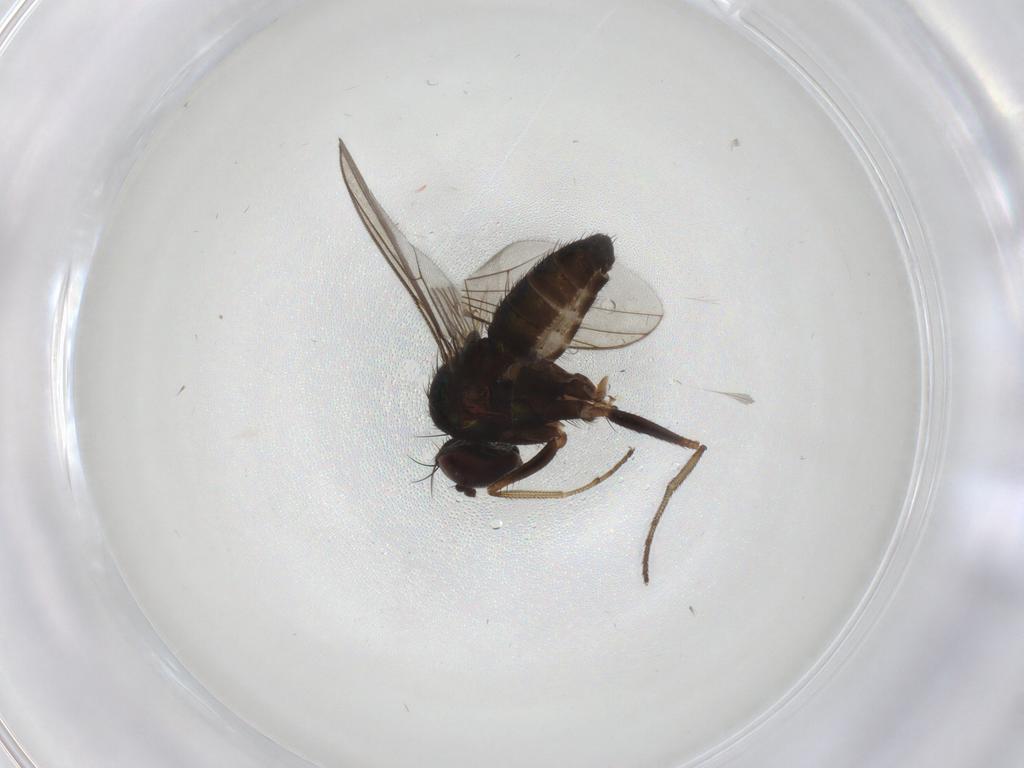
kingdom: Animalia
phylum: Arthropoda
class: Insecta
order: Diptera
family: Dolichopodidae
